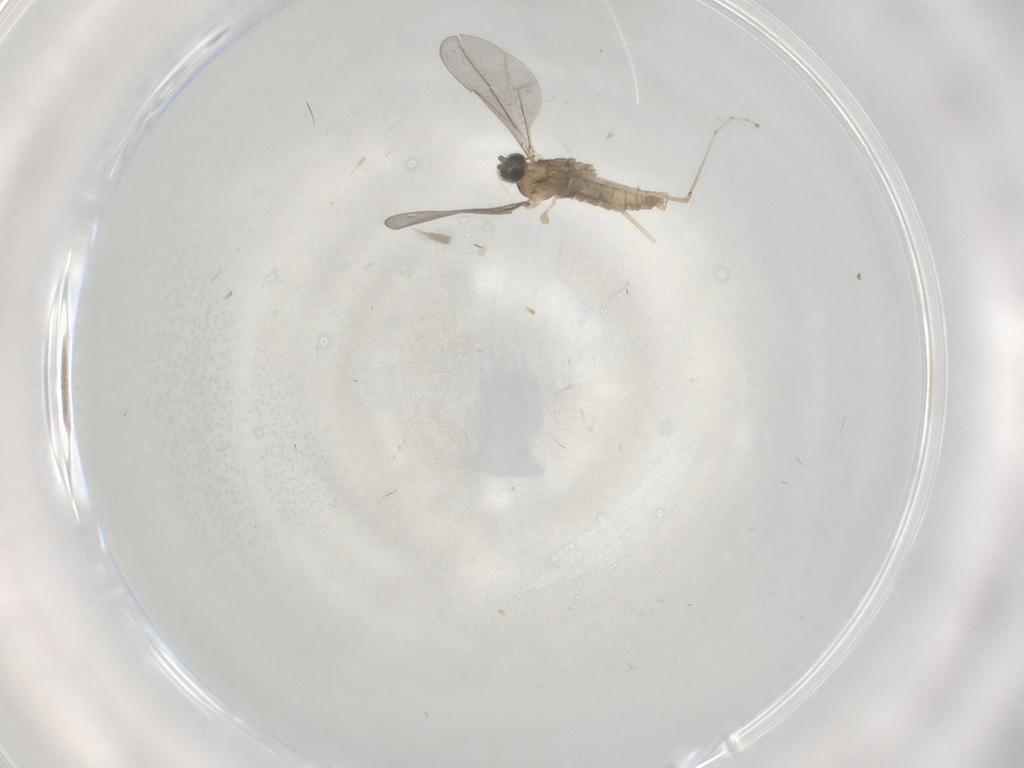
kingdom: Animalia
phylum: Arthropoda
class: Insecta
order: Diptera
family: Cecidomyiidae
